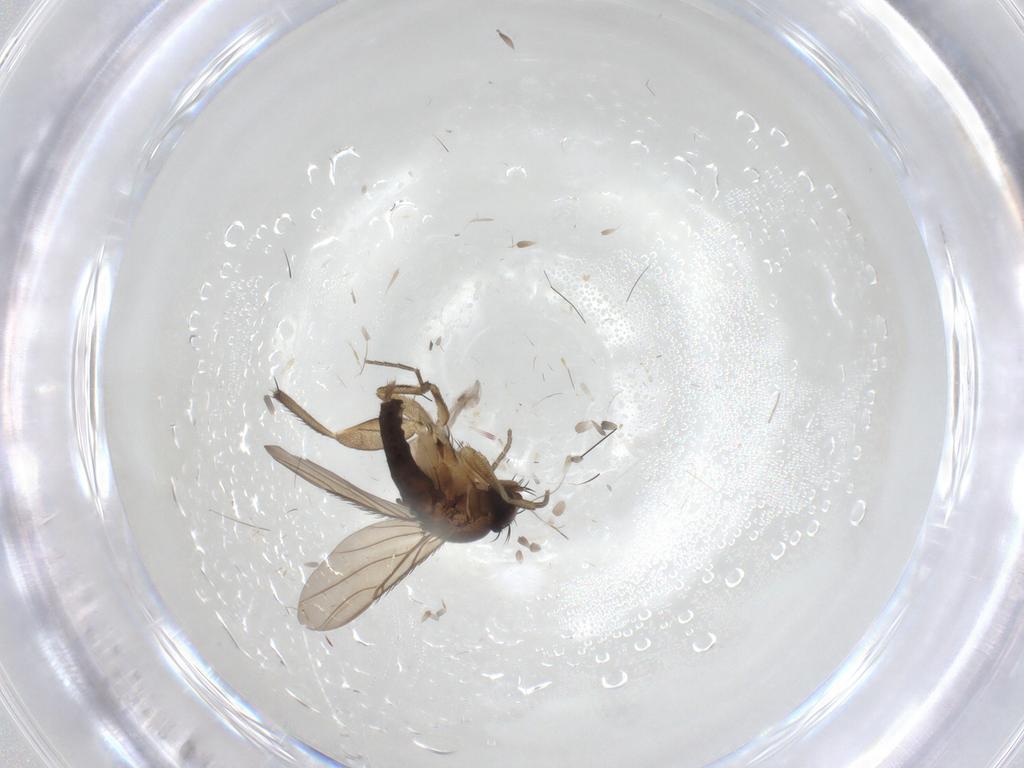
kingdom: Animalia
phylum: Arthropoda
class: Insecta
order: Diptera
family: Phoridae
